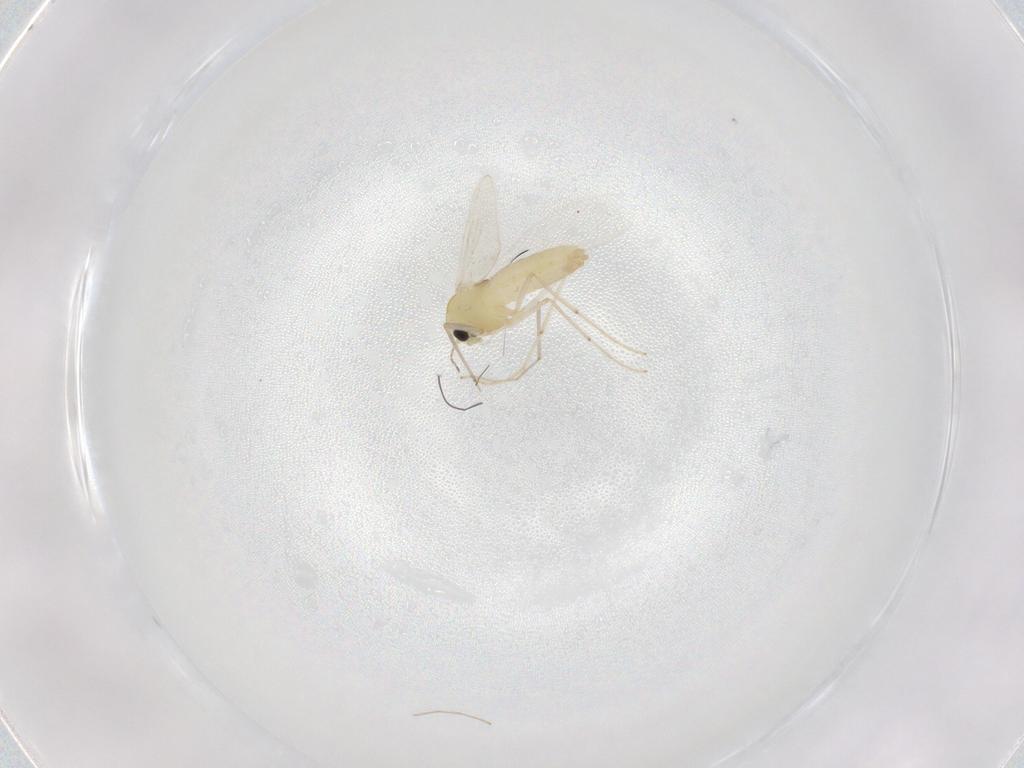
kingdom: Animalia
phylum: Arthropoda
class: Insecta
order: Diptera
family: Chironomidae
